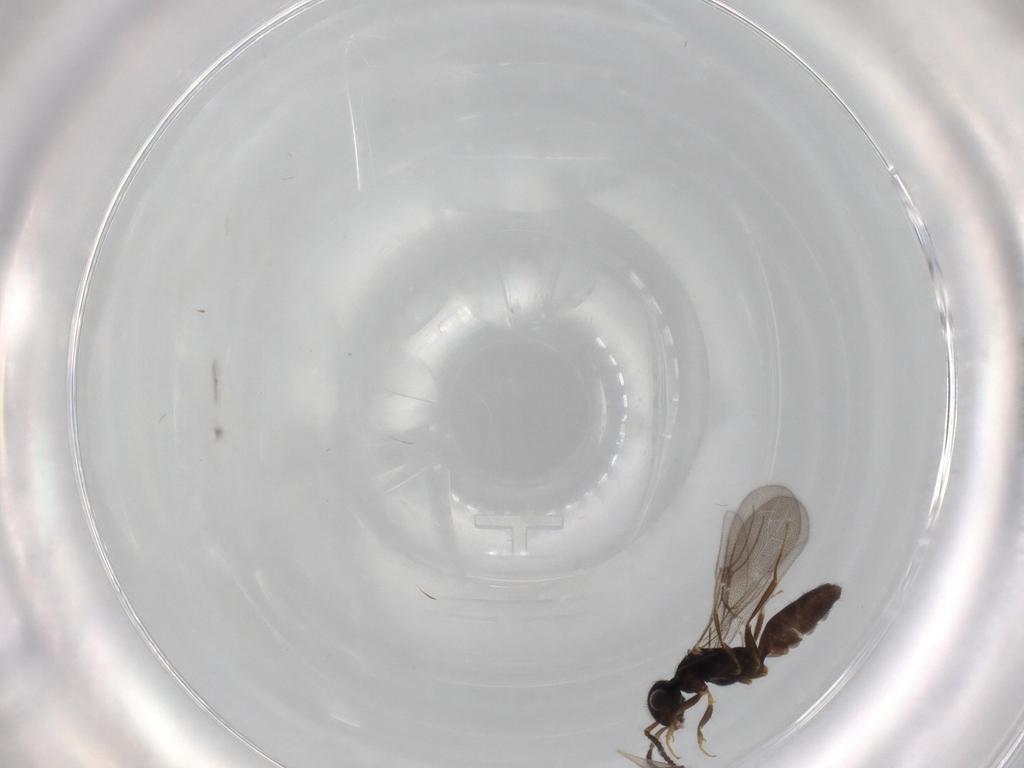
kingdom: Animalia
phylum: Arthropoda
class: Insecta
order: Hymenoptera
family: Bethylidae
